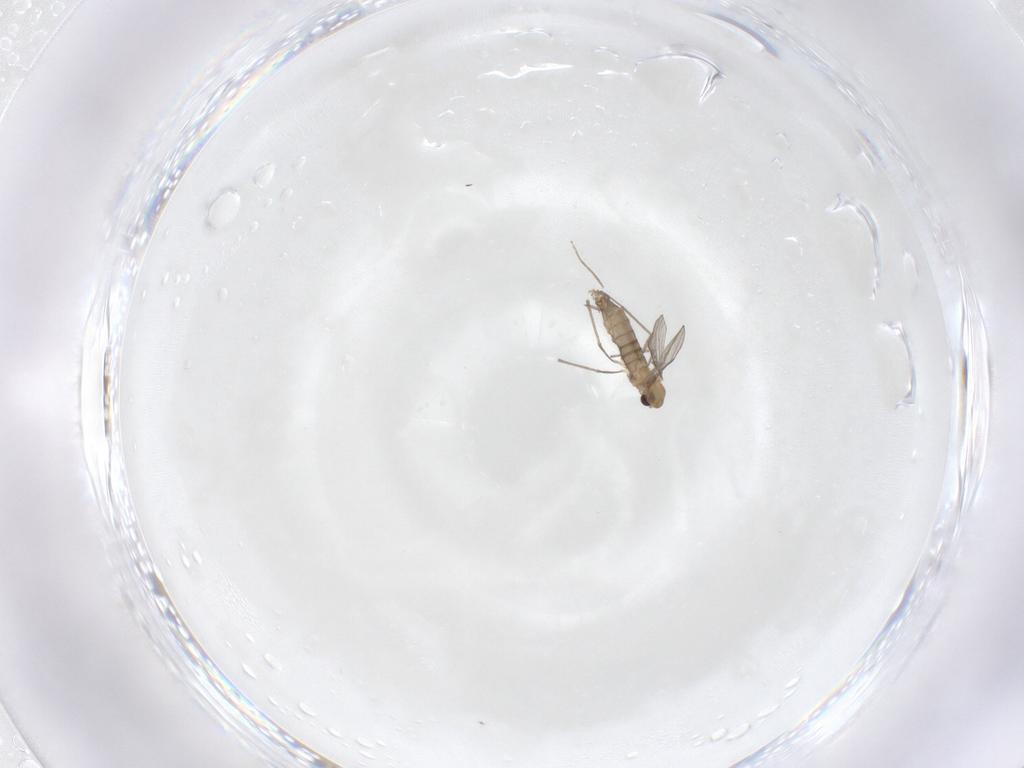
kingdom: Animalia
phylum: Arthropoda
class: Insecta
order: Diptera
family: Chironomidae
